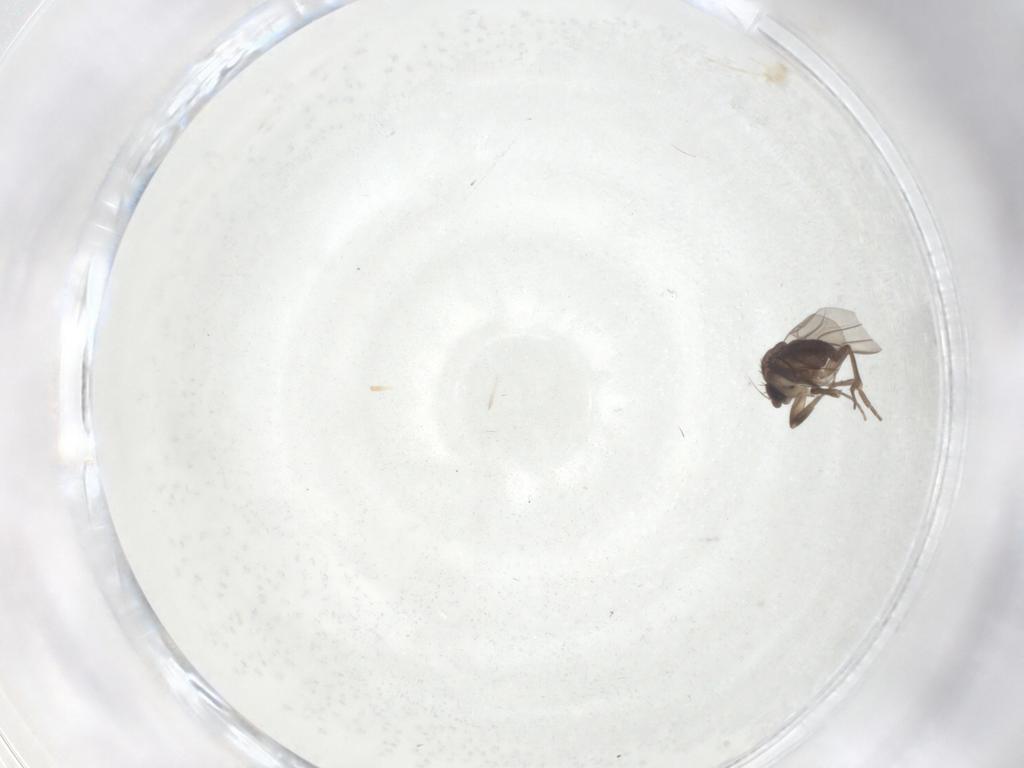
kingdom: Animalia
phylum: Arthropoda
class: Insecta
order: Diptera
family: Phoridae
